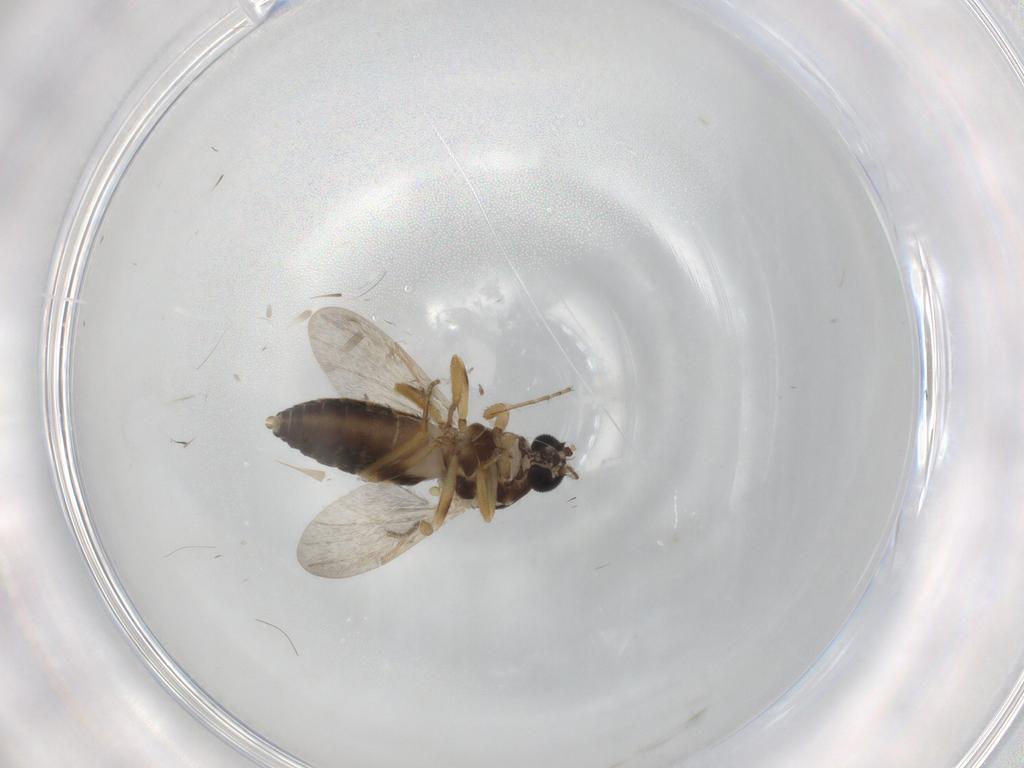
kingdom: Animalia
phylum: Arthropoda
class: Insecta
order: Diptera
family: Ceratopogonidae
